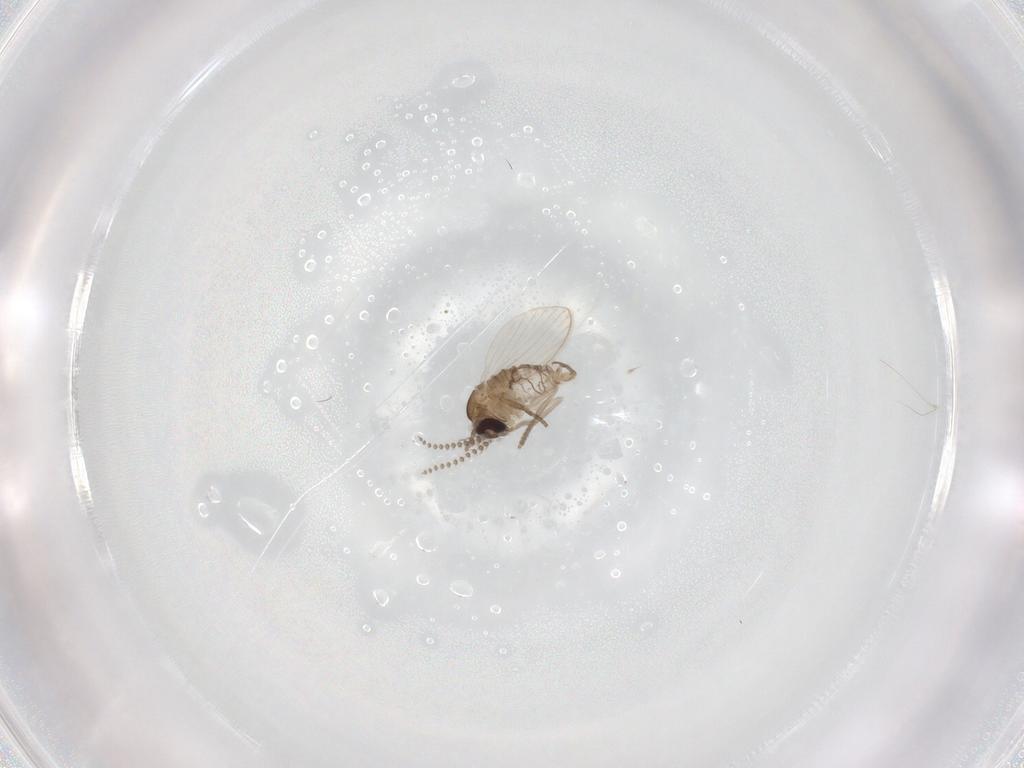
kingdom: Animalia
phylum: Arthropoda
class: Insecta
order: Diptera
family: Psychodidae
